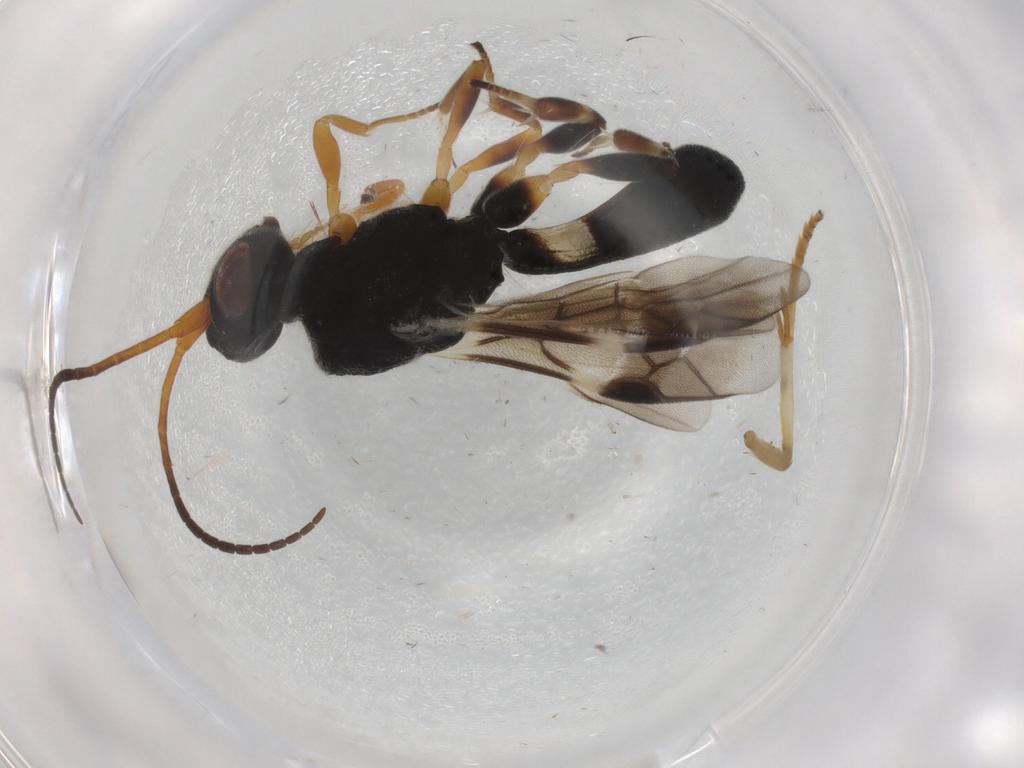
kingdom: Animalia
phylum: Arthropoda
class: Insecta
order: Hymenoptera
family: Braconidae
